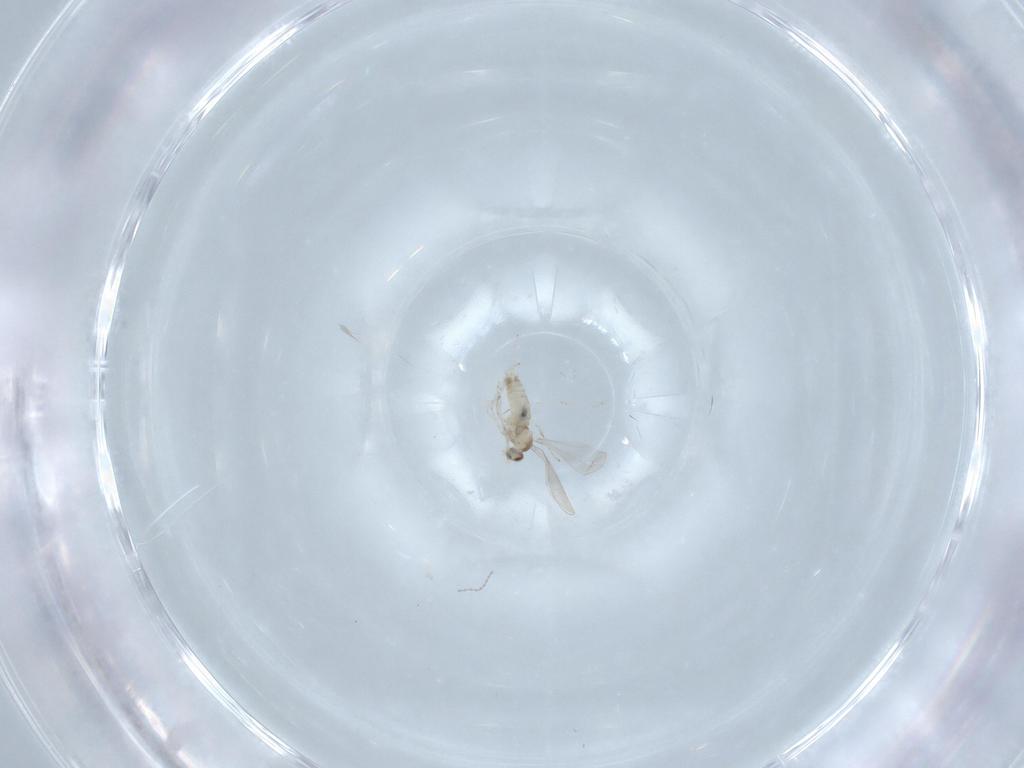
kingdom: Animalia
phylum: Arthropoda
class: Insecta
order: Diptera
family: Cecidomyiidae
